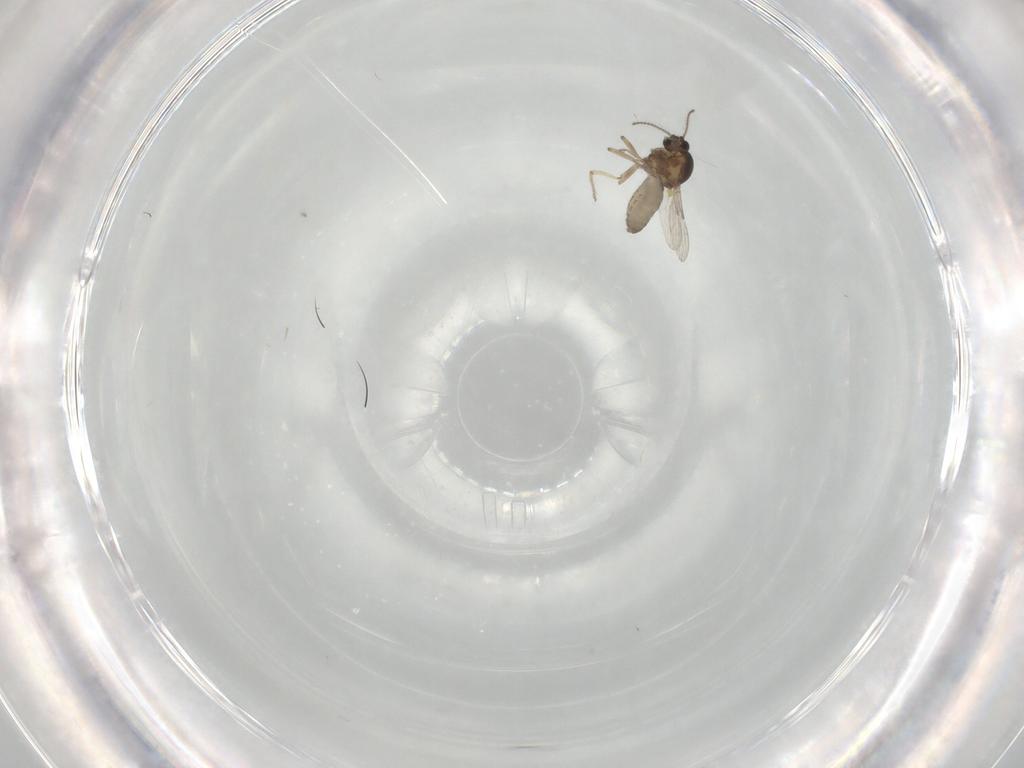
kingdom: Animalia
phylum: Arthropoda
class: Insecta
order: Diptera
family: Ceratopogonidae
